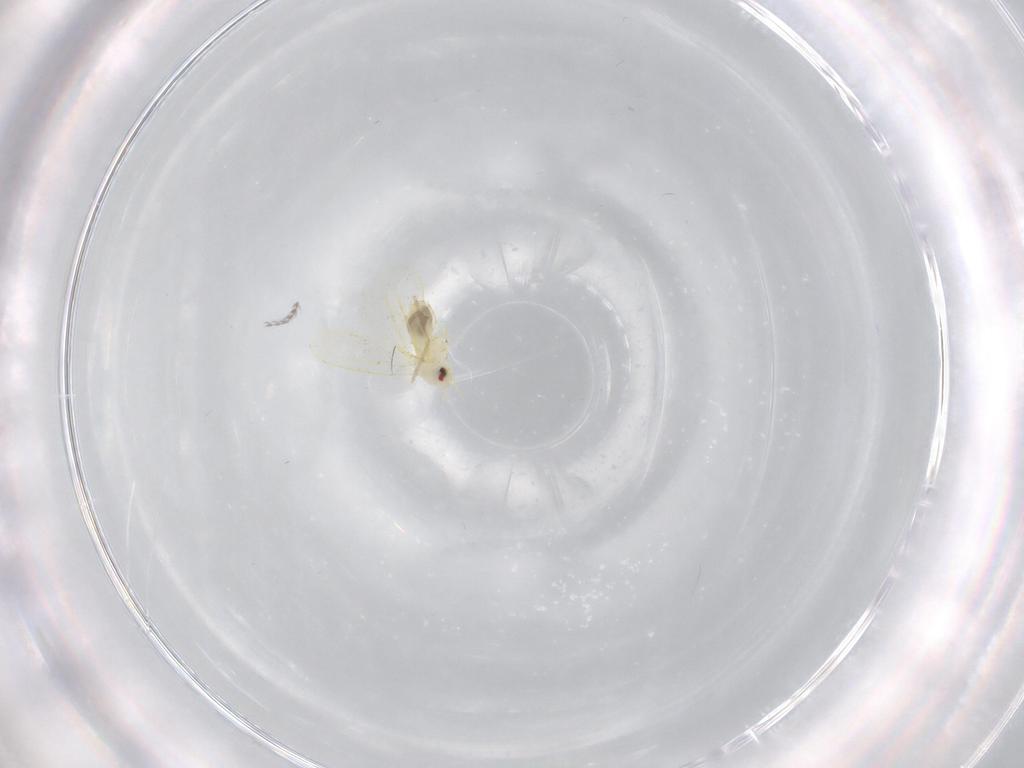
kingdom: Animalia
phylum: Arthropoda
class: Insecta
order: Hemiptera
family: Aleyrodidae
